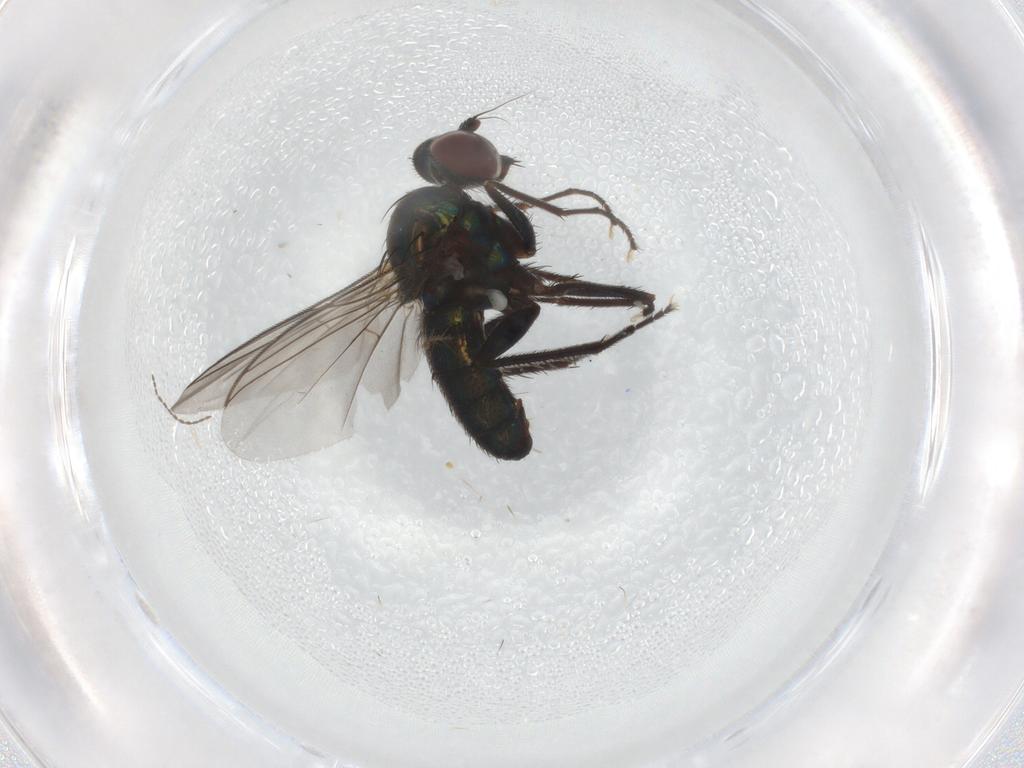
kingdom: Animalia
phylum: Arthropoda
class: Insecta
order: Diptera
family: Dolichopodidae
